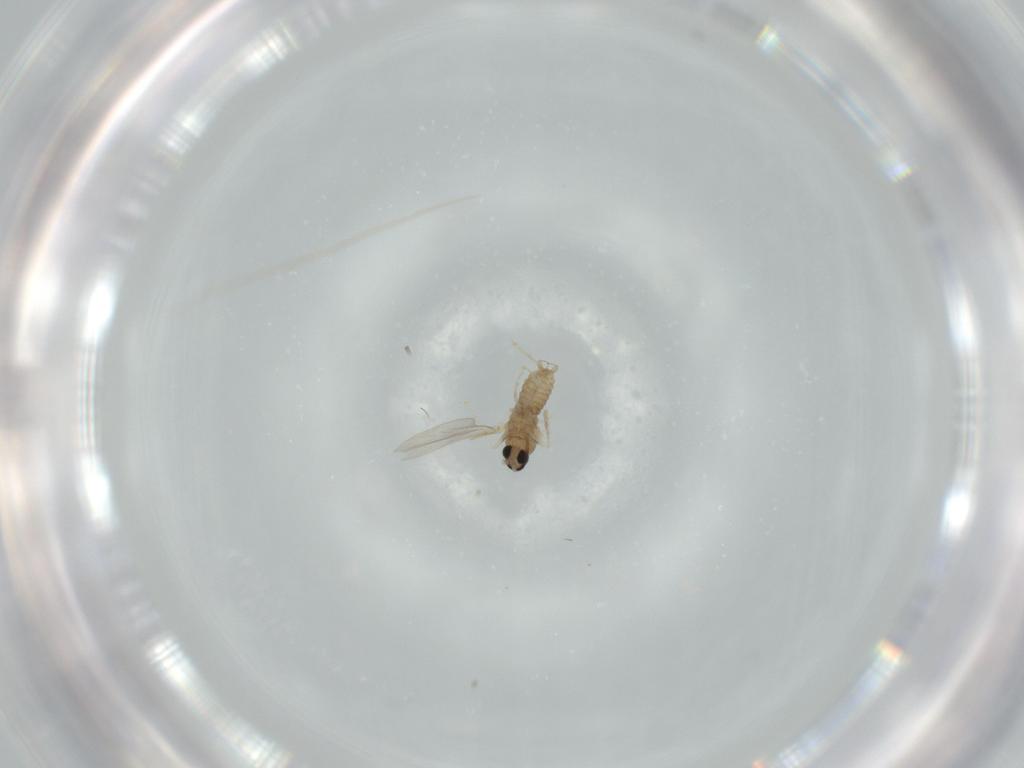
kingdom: Animalia
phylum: Arthropoda
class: Insecta
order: Diptera
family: Cecidomyiidae
